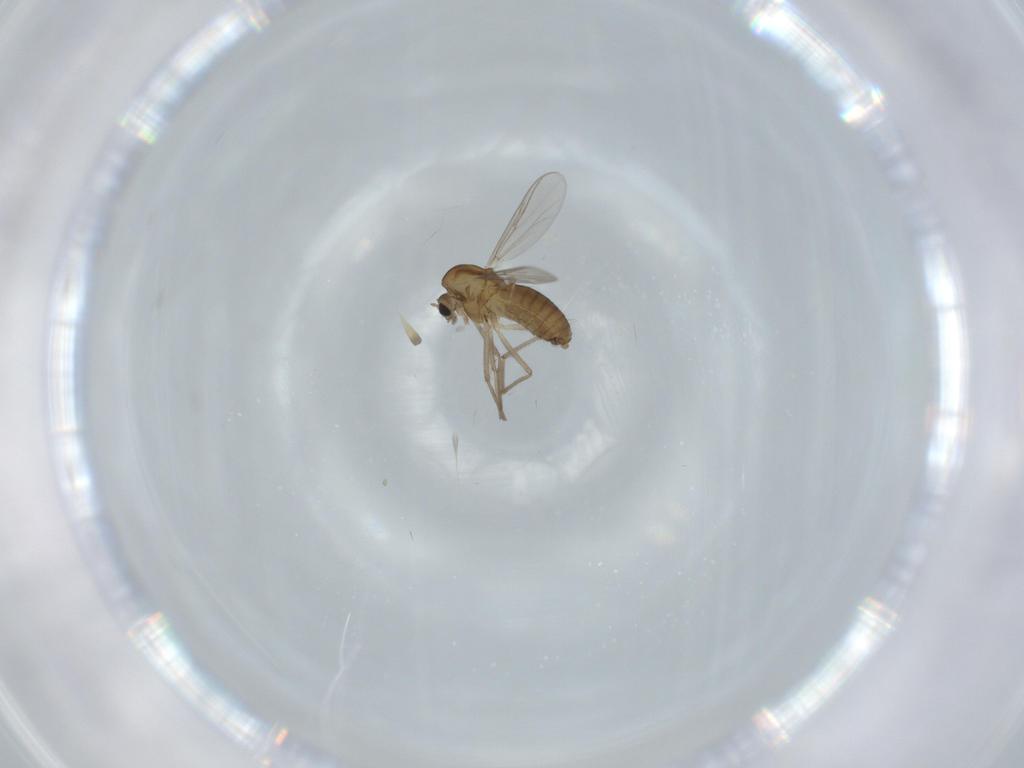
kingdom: Animalia
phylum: Arthropoda
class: Insecta
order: Diptera
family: Chironomidae
